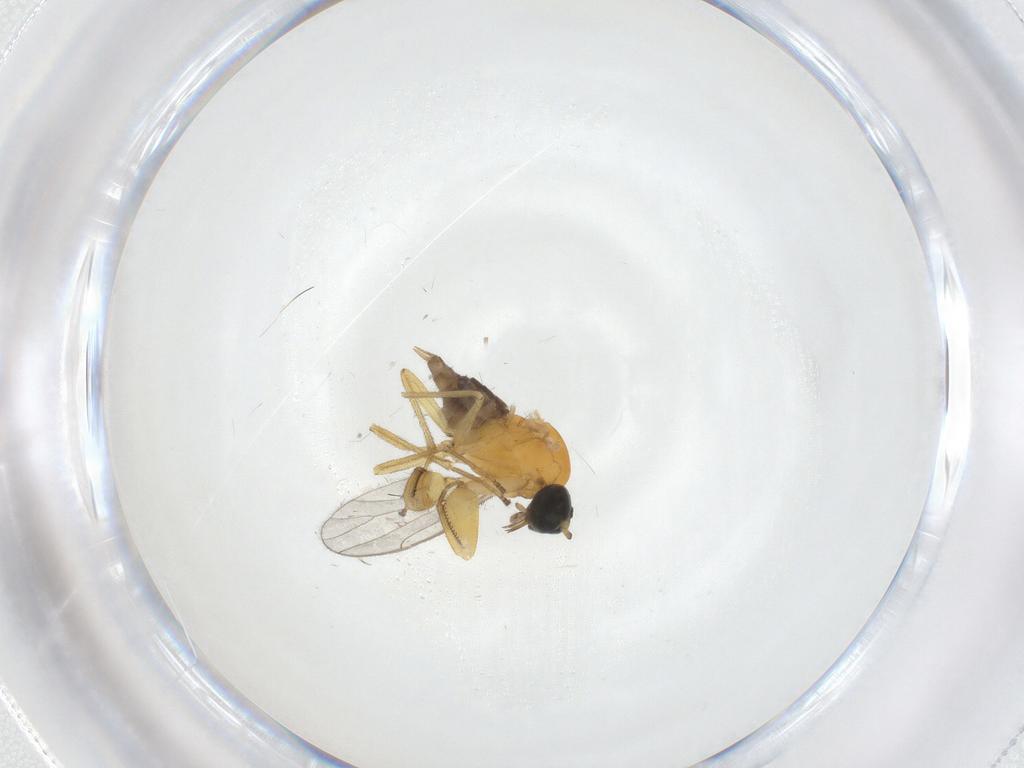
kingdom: Animalia
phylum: Arthropoda
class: Insecta
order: Diptera
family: Empididae
